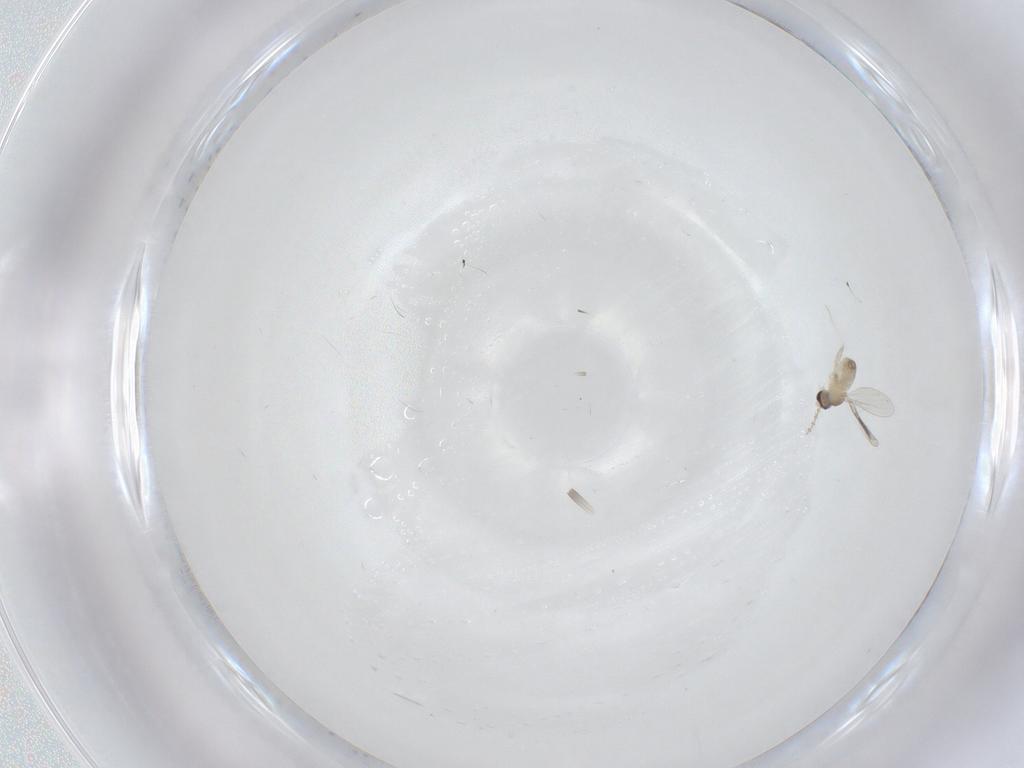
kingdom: Animalia
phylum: Arthropoda
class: Insecta
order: Diptera
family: Cecidomyiidae
